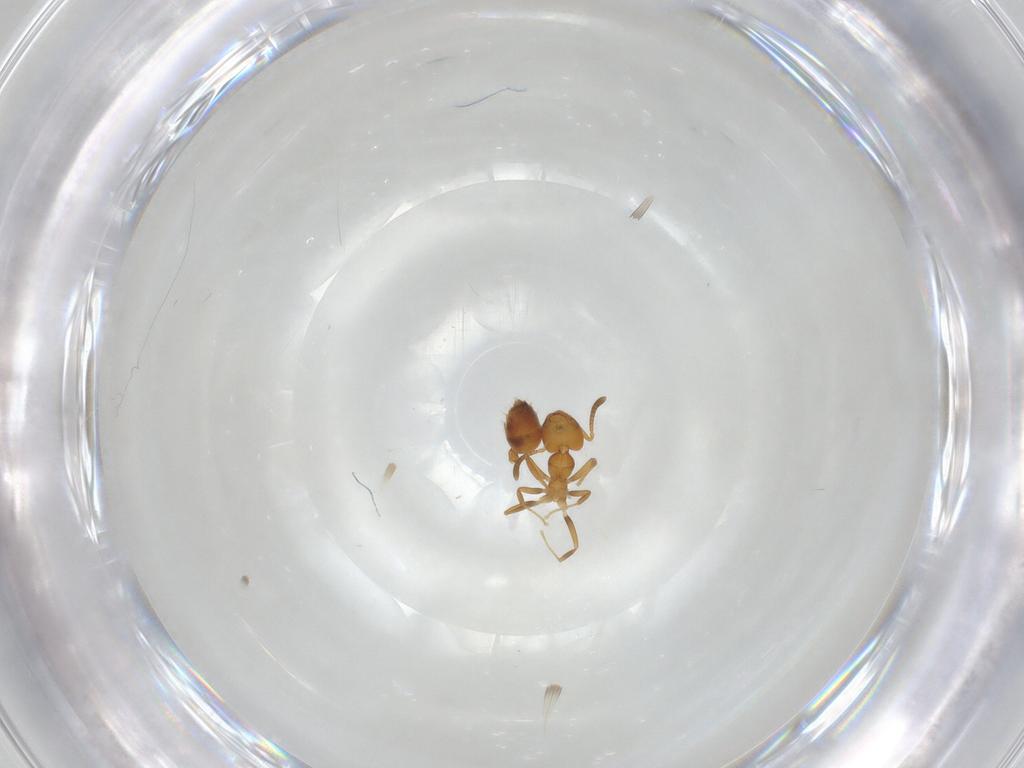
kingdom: Animalia
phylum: Arthropoda
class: Insecta
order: Hymenoptera
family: Formicidae
